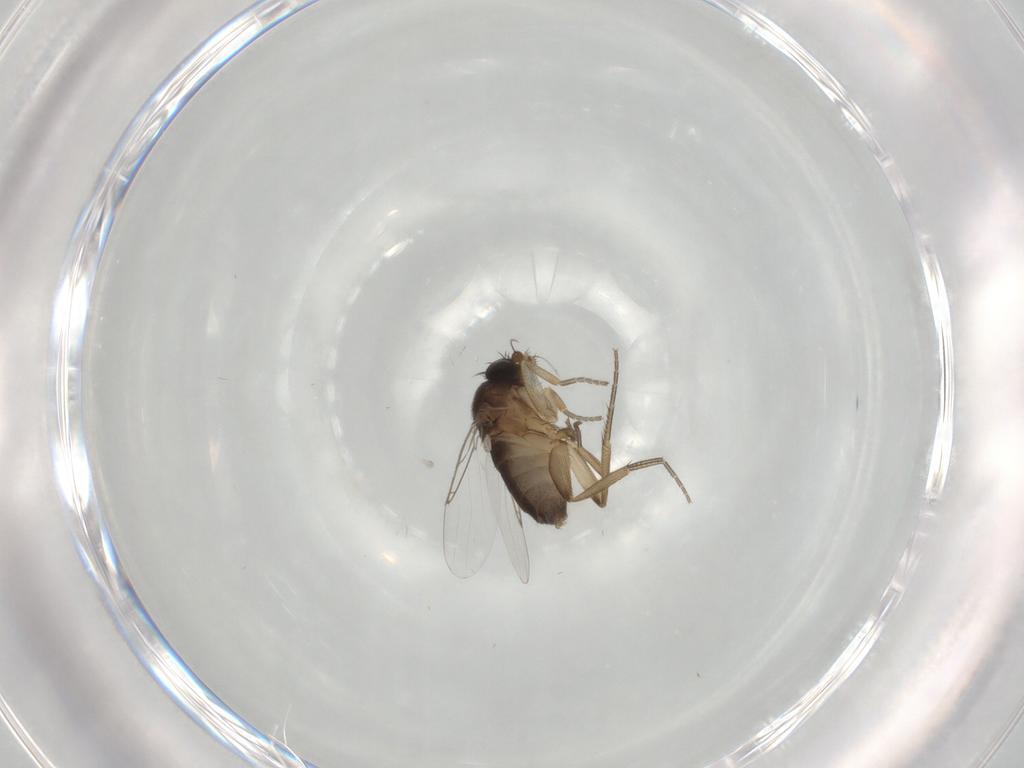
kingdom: Animalia
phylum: Arthropoda
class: Insecta
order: Diptera
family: Phoridae
